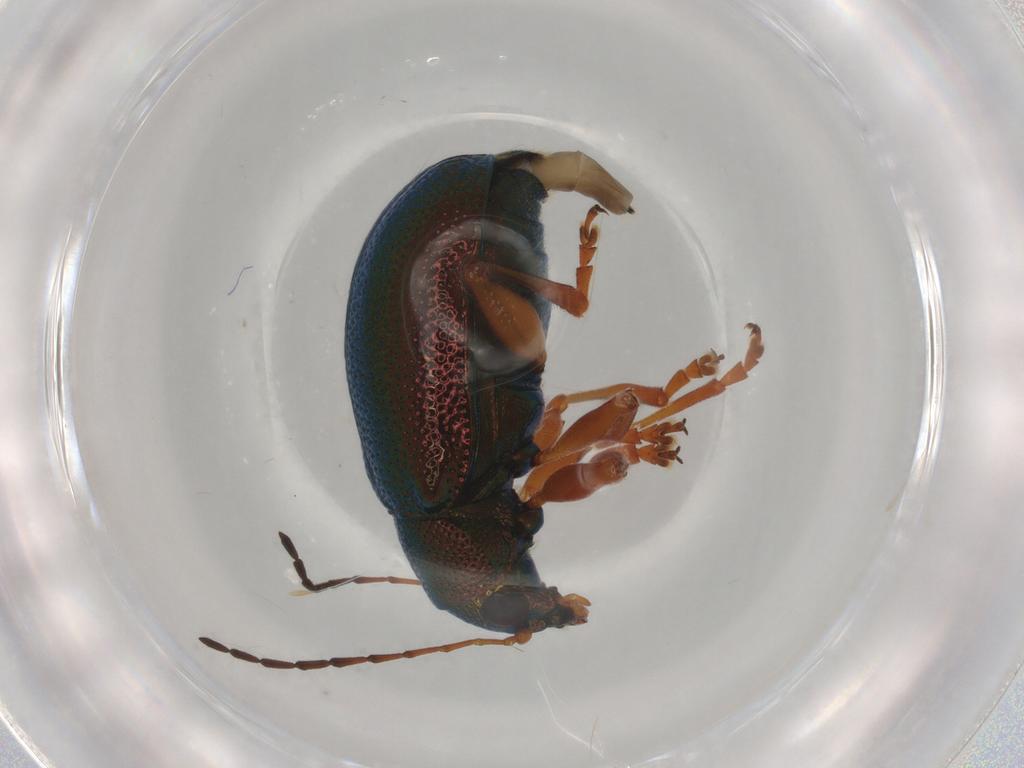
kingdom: Animalia
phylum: Arthropoda
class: Insecta
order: Coleoptera
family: Chrysomelidae
